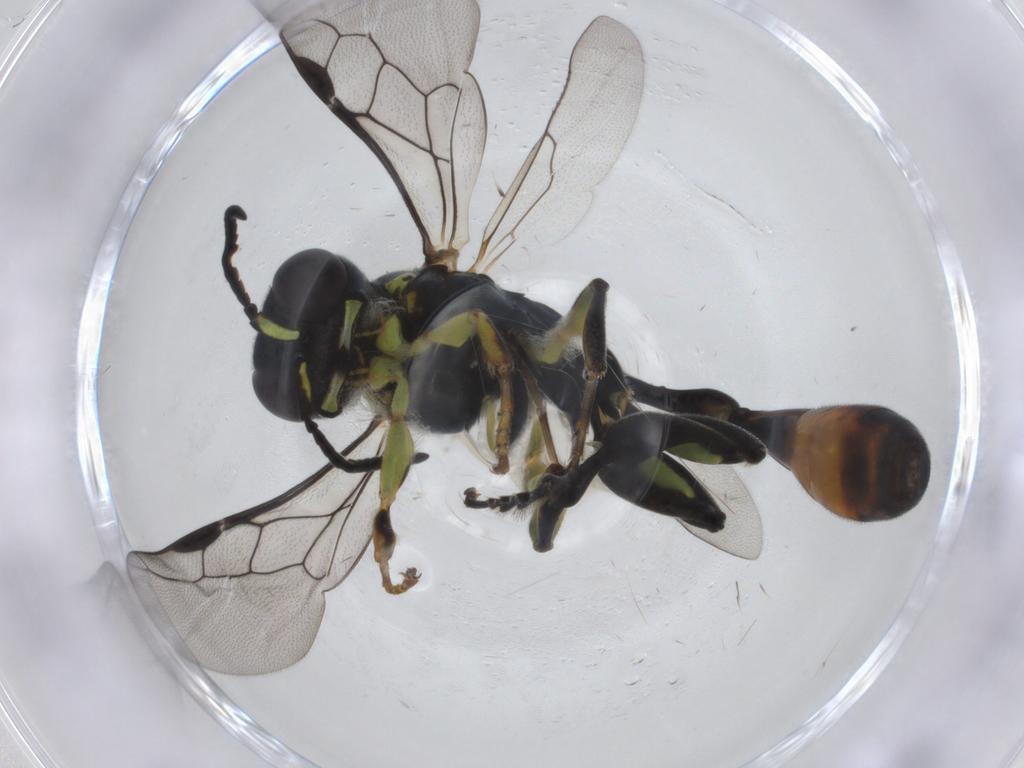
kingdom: Animalia
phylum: Arthropoda
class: Insecta
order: Hymenoptera
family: Crabronidae
